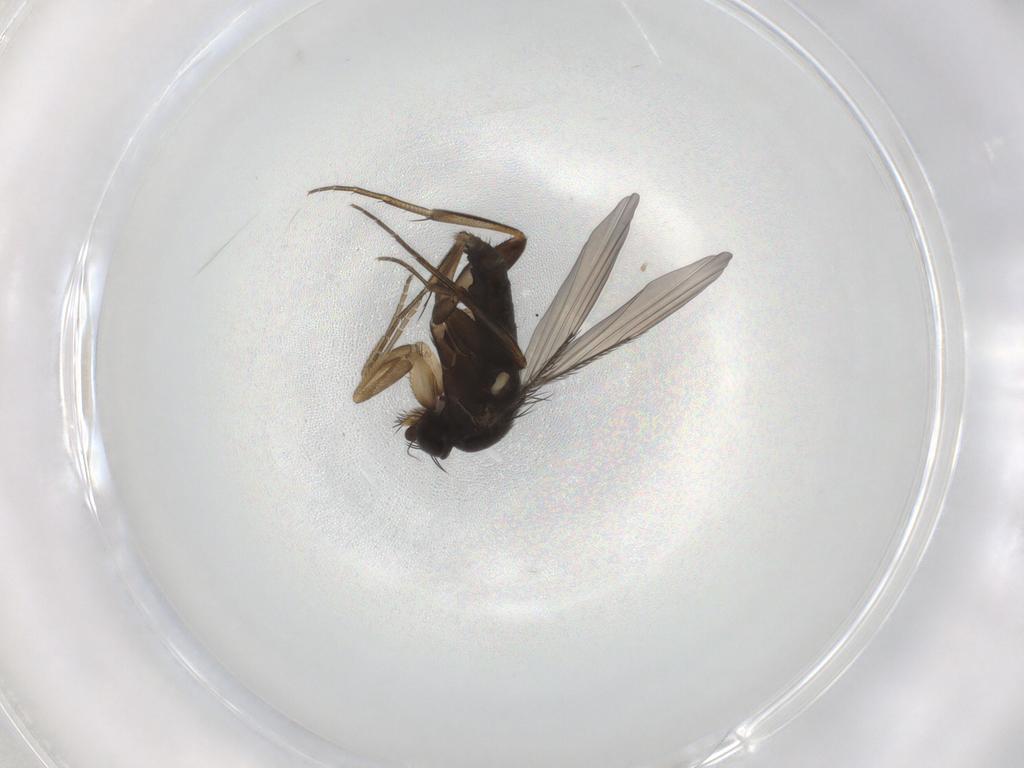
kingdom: Animalia
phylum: Arthropoda
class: Insecta
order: Diptera
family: Phoridae
